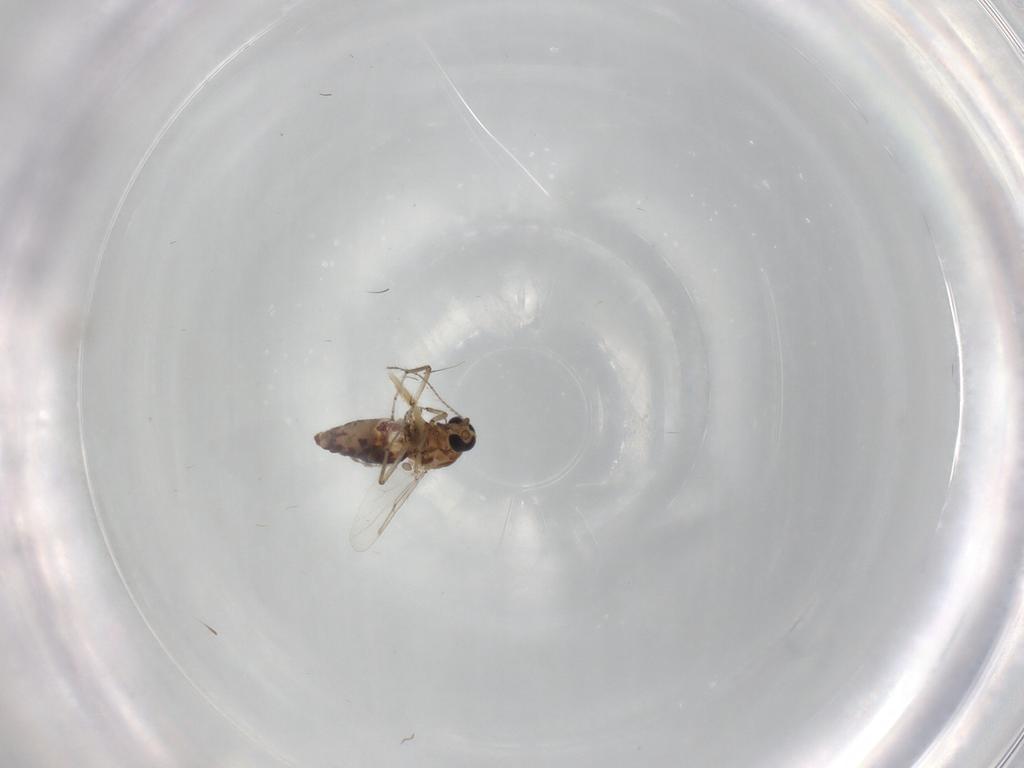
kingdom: Animalia
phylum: Arthropoda
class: Insecta
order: Diptera
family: Ceratopogonidae
